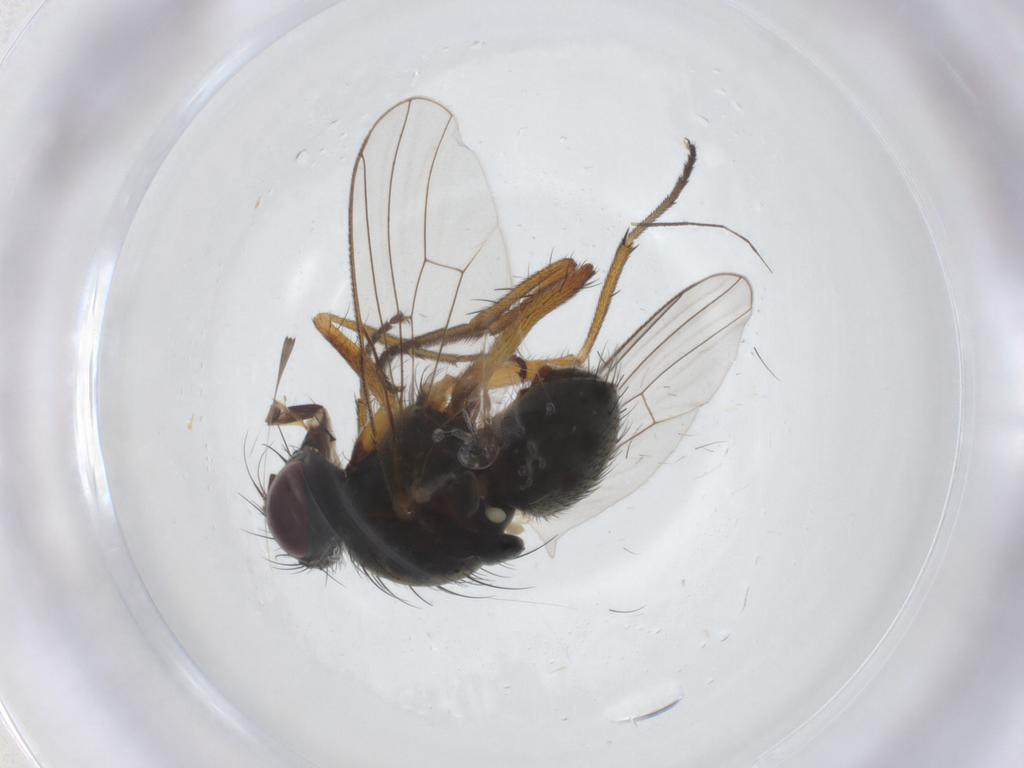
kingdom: Animalia
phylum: Arthropoda
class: Insecta
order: Diptera
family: Muscidae
